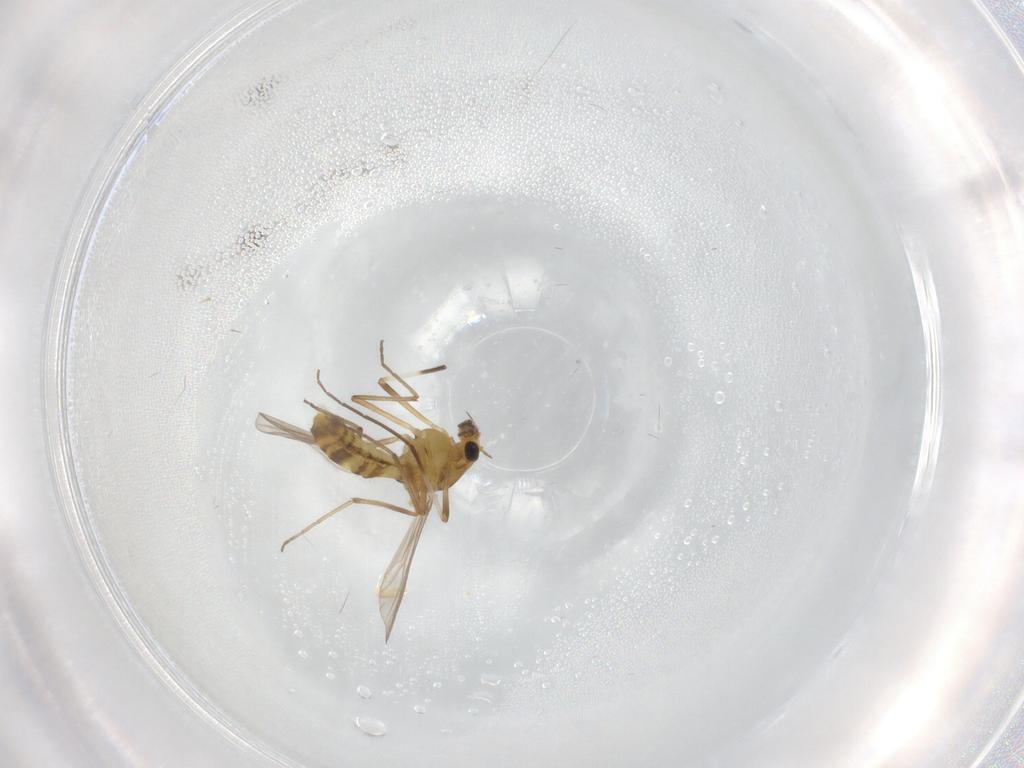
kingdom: Animalia
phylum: Arthropoda
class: Insecta
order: Diptera
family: Chironomidae
